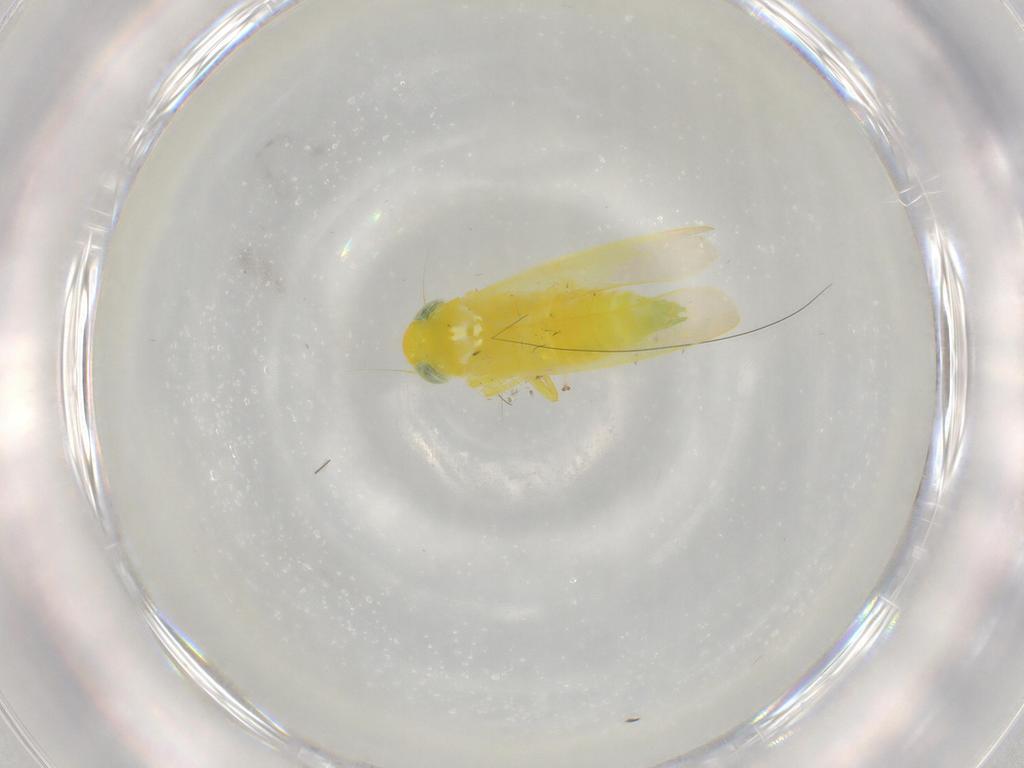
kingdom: Animalia
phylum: Arthropoda
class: Insecta
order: Hemiptera
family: Cicadellidae
